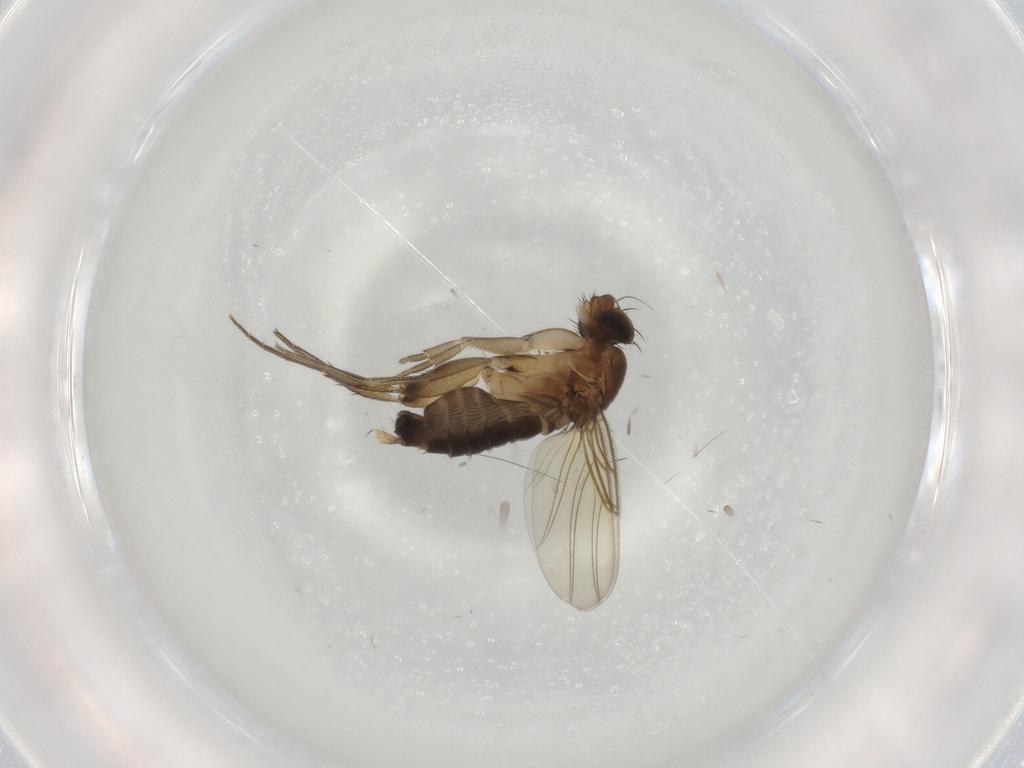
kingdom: Animalia
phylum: Arthropoda
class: Insecta
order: Diptera
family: Phoridae
